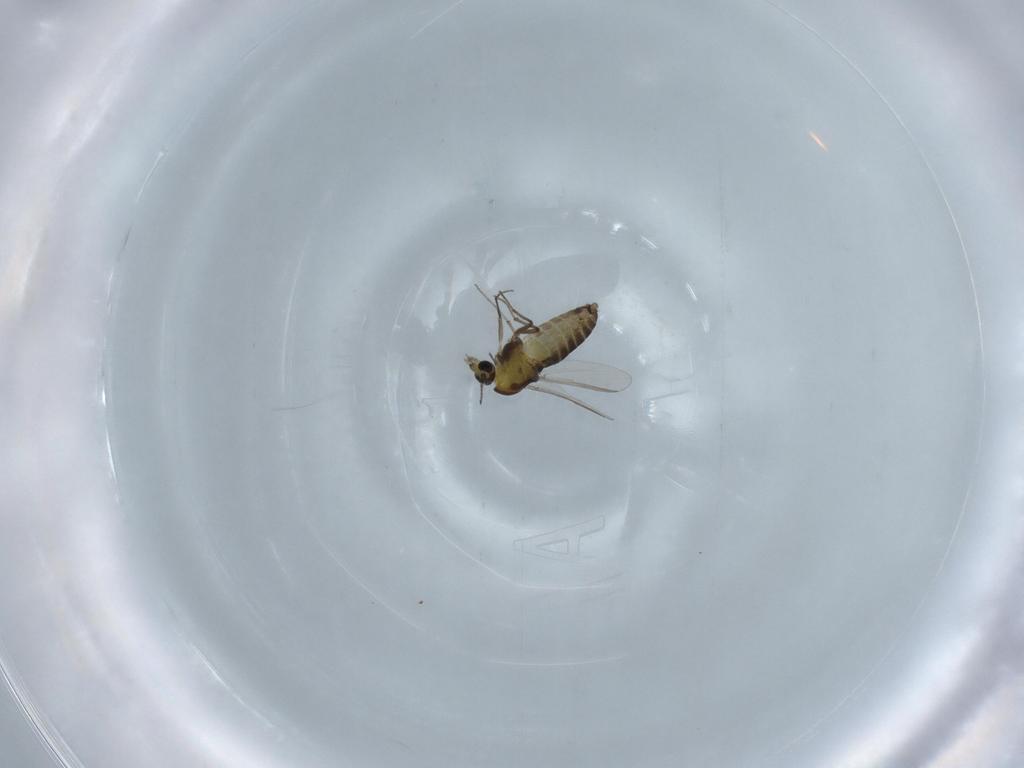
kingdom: Animalia
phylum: Arthropoda
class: Insecta
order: Diptera
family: Chironomidae
